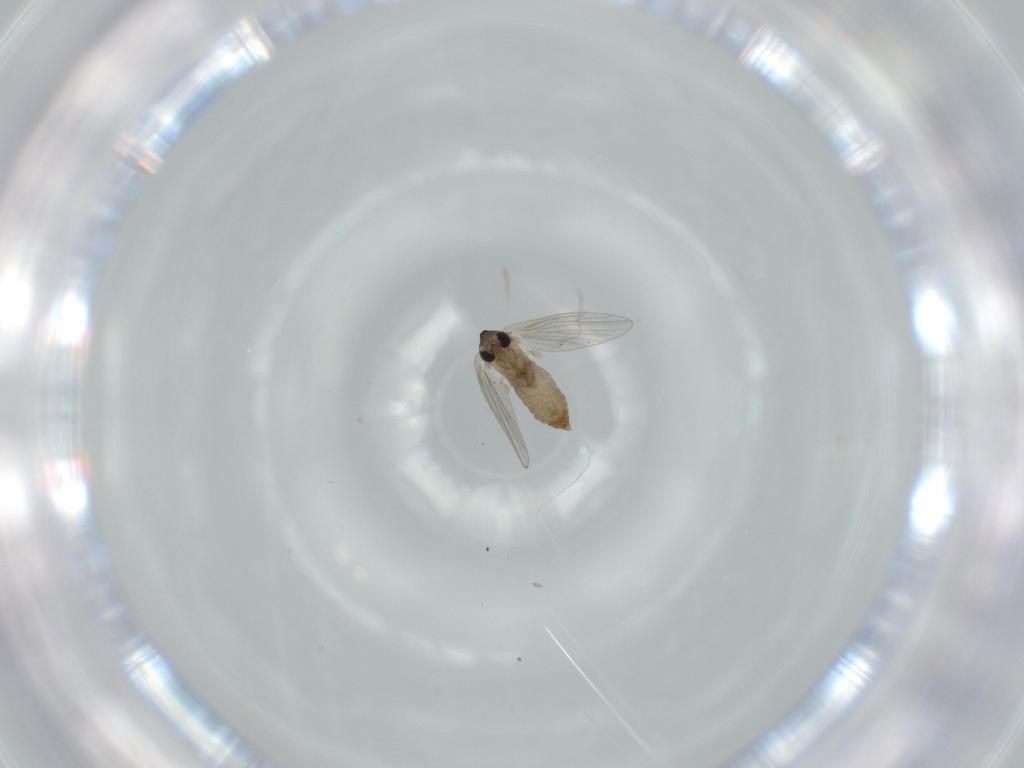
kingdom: Animalia
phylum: Arthropoda
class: Insecta
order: Diptera
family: Psychodidae
